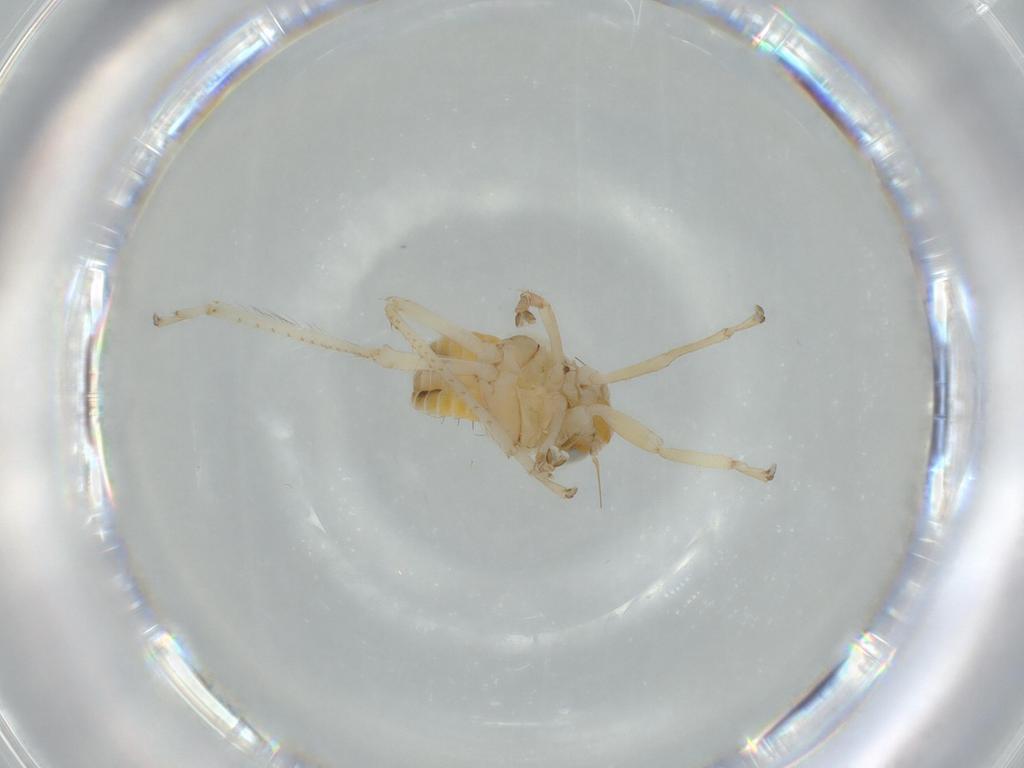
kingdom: Animalia
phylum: Arthropoda
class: Insecta
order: Hemiptera
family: Cicadellidae
